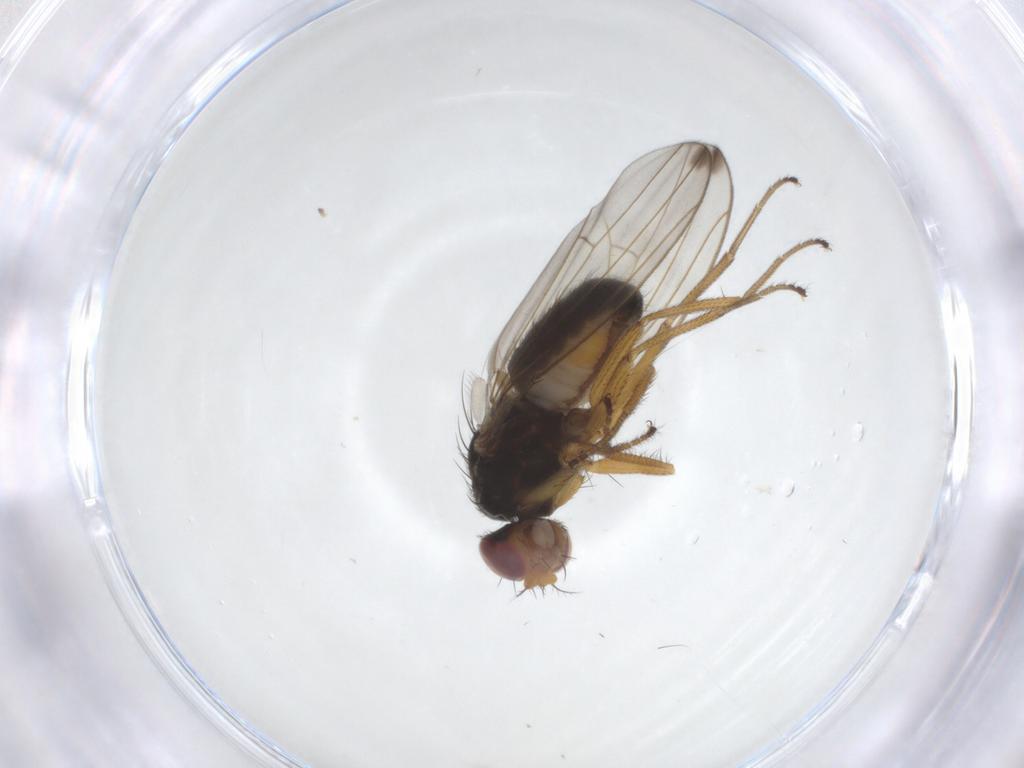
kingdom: Animalia
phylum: Arthropoda
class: Insecta
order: Diptera
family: Drosophilidae
